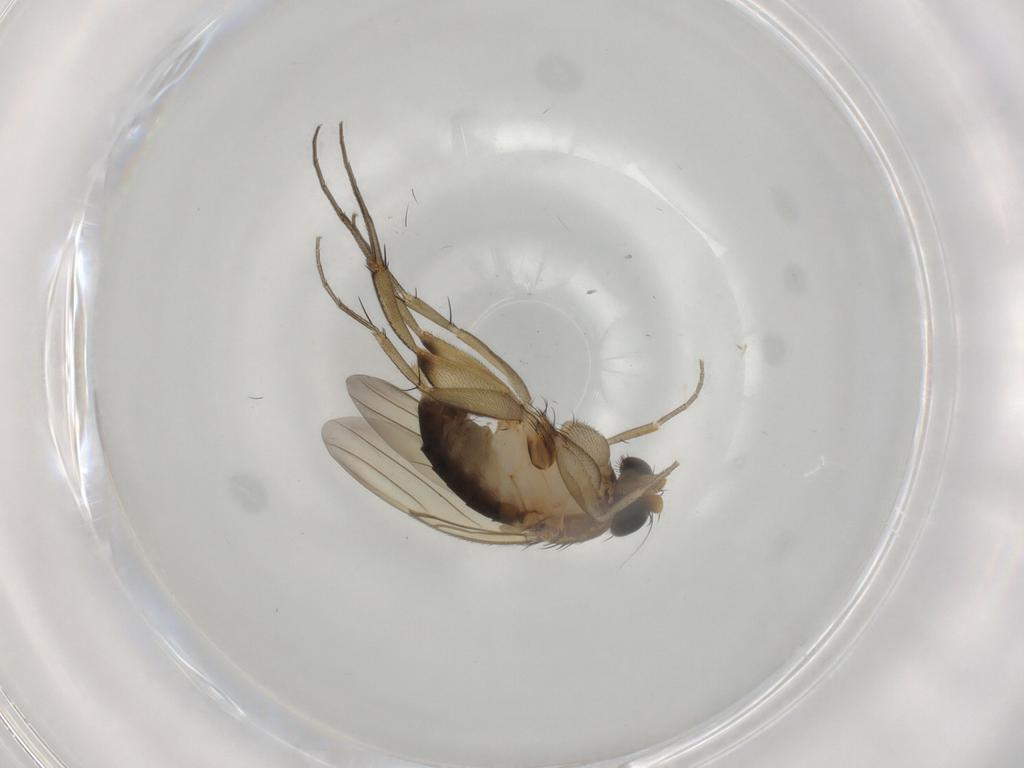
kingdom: Animalia
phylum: Arthropoda
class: Insecta
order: Diptera
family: Phoridae
